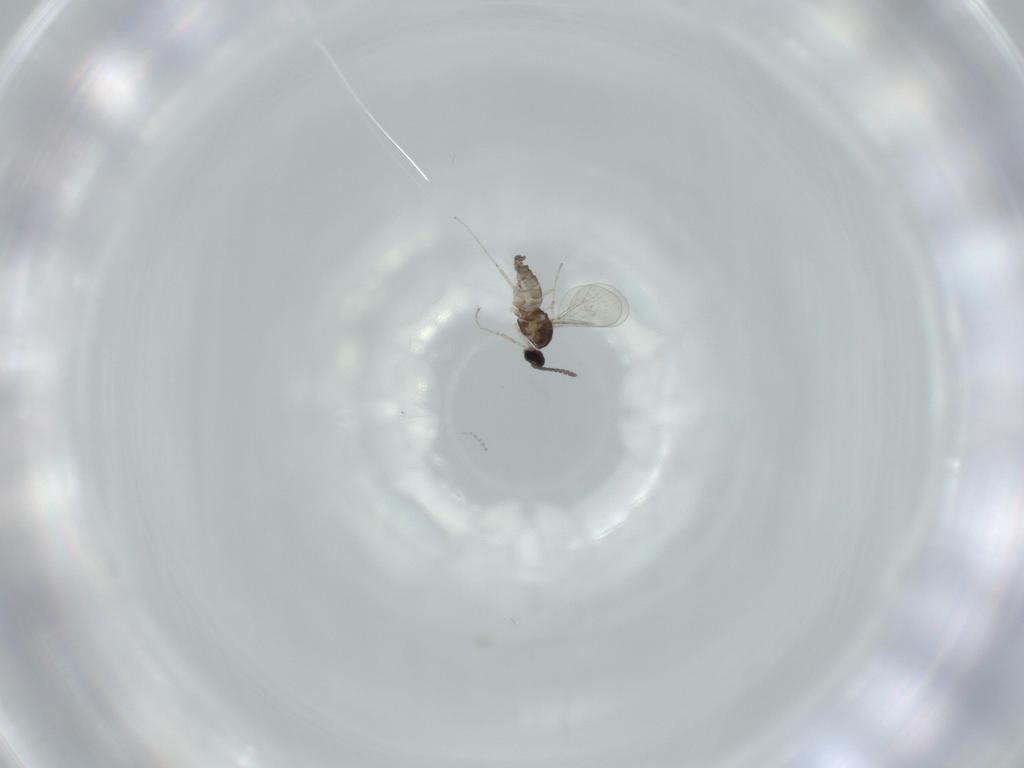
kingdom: Animalia
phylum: Arthropoda
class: Insecta
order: Diptera
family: Cecidomyiidae
